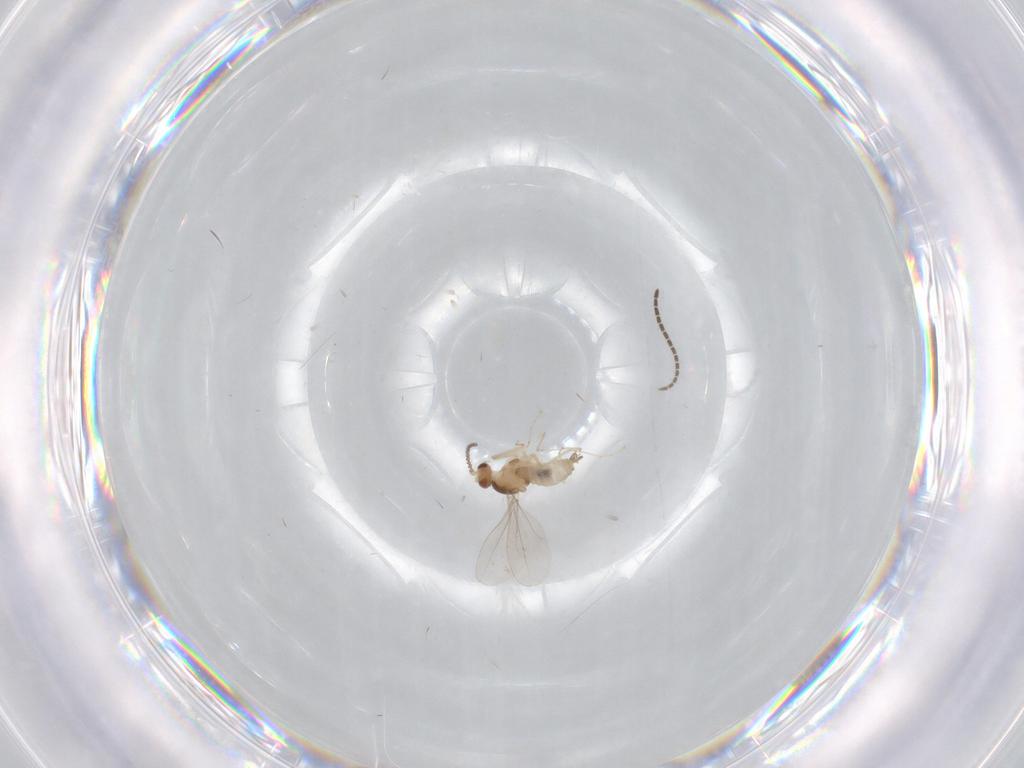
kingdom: Animalia
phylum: Arthropoda
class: Insecta
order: Diptera
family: Sciaridae
